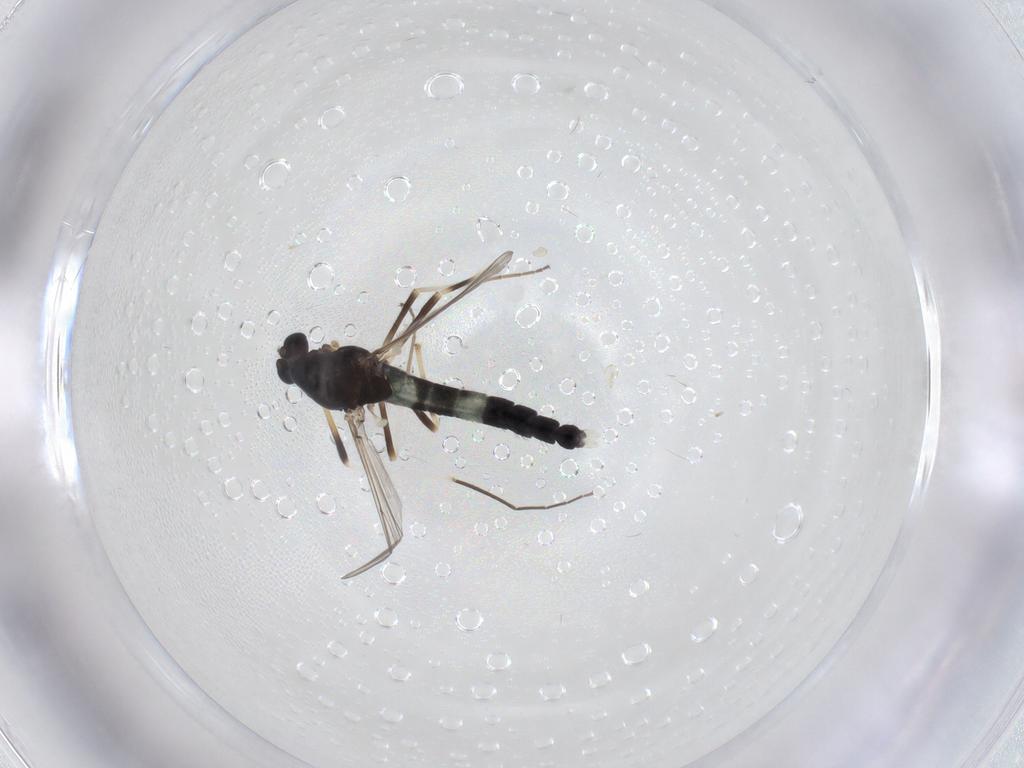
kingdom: Animalia
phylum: Arthropoda
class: Insecta
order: Diptera
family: Chironomidae
